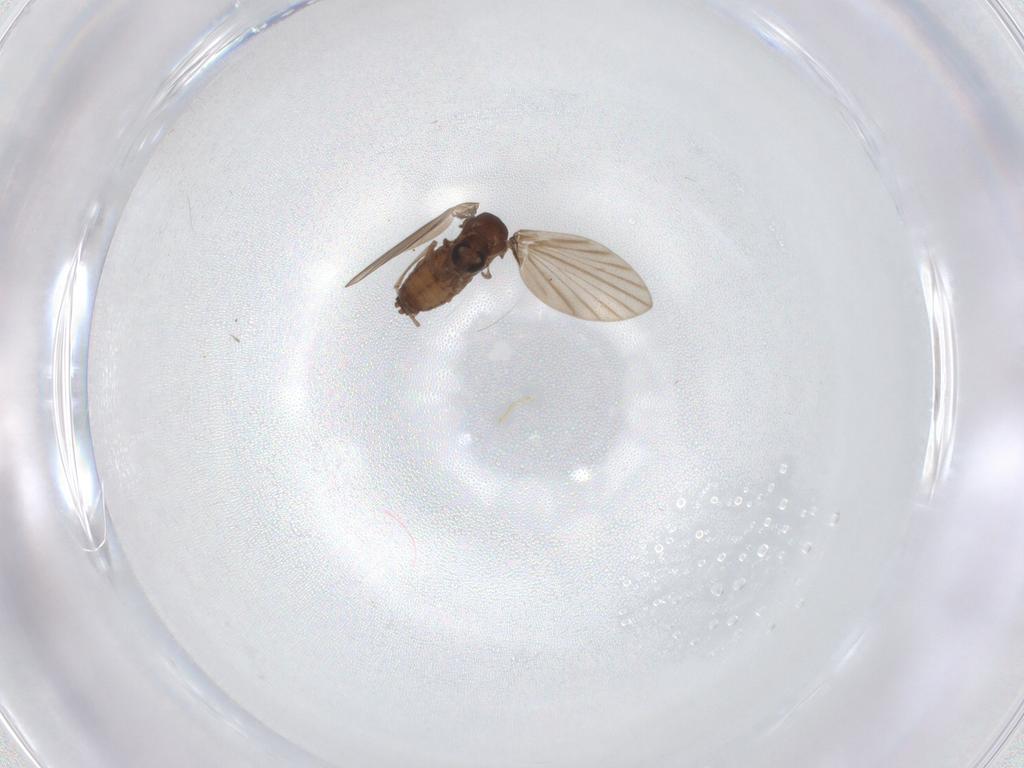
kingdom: Animalia
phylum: Arthropoda
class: Insecta
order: Diptera
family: Psychodidae
